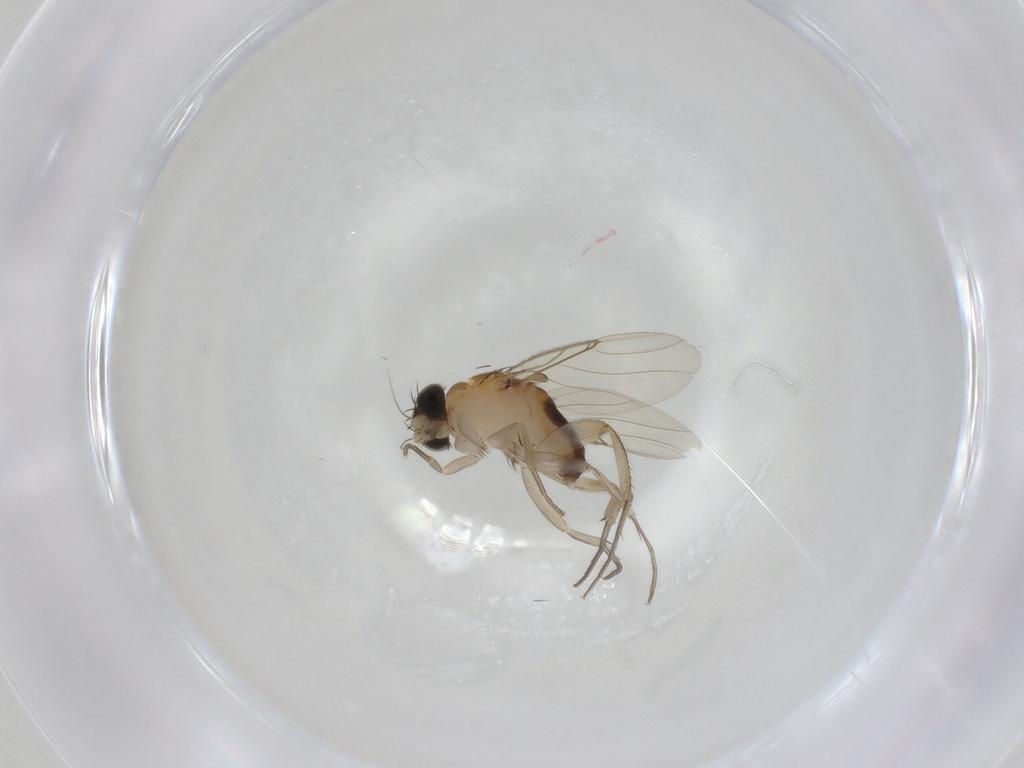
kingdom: Animalia
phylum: Arthropoda
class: Insecta
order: Diptera
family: Phoridae
